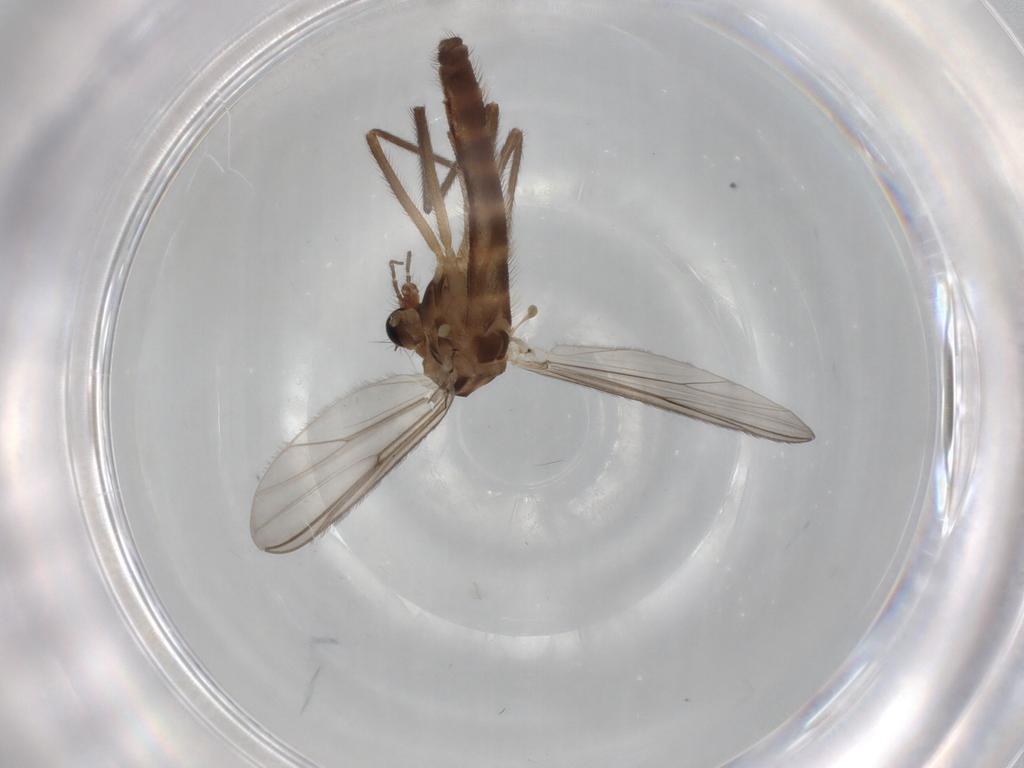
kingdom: Animalia
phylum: Arthropoda
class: Insecta
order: Diptera
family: Chironomidae
